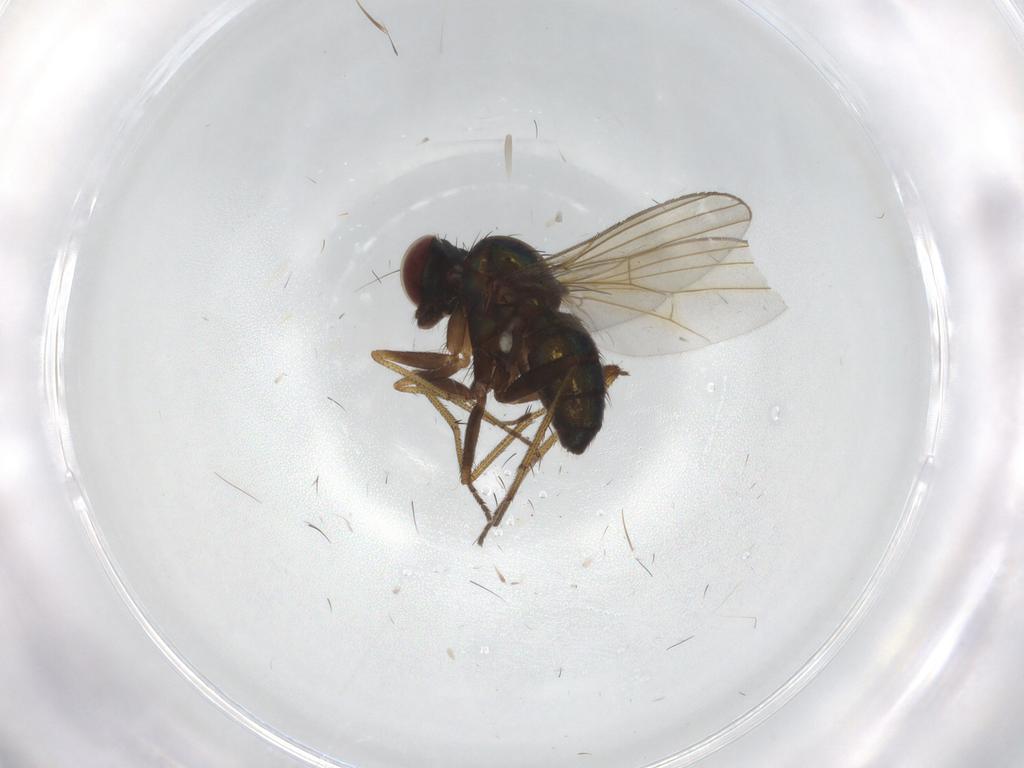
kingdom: Animalia
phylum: Arthropoda
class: Insecta
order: Diptera
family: Dolichopodidae
